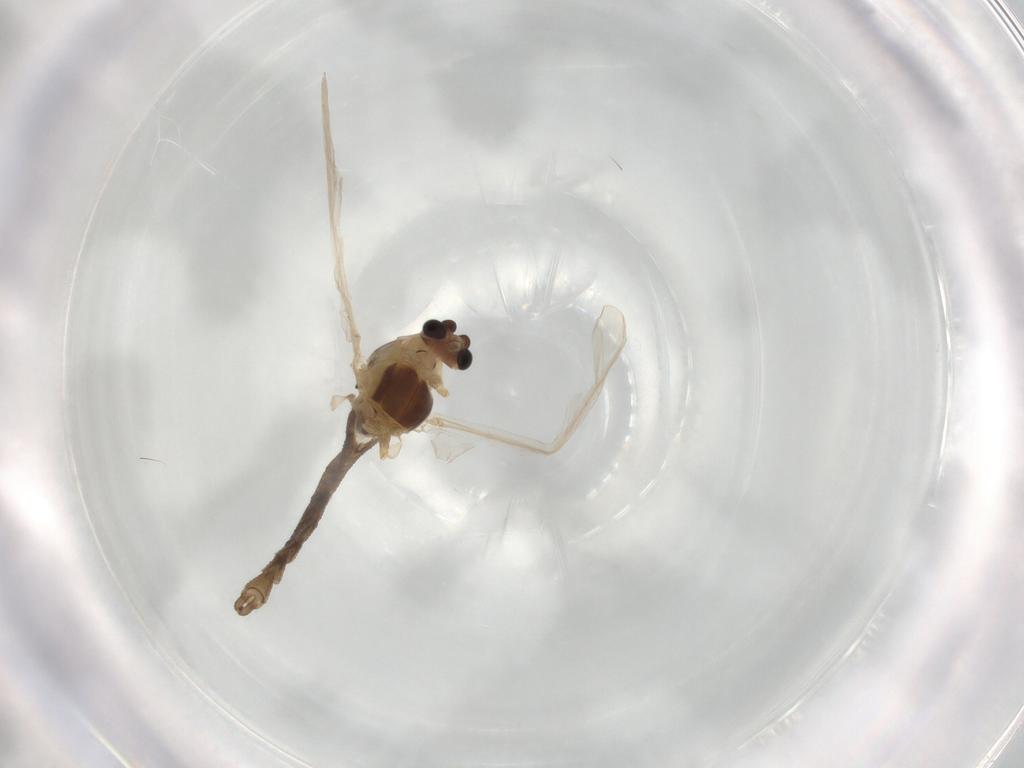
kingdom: Animalia
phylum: Arthropoda
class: Insecta
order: Diptera
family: Chironomidae
